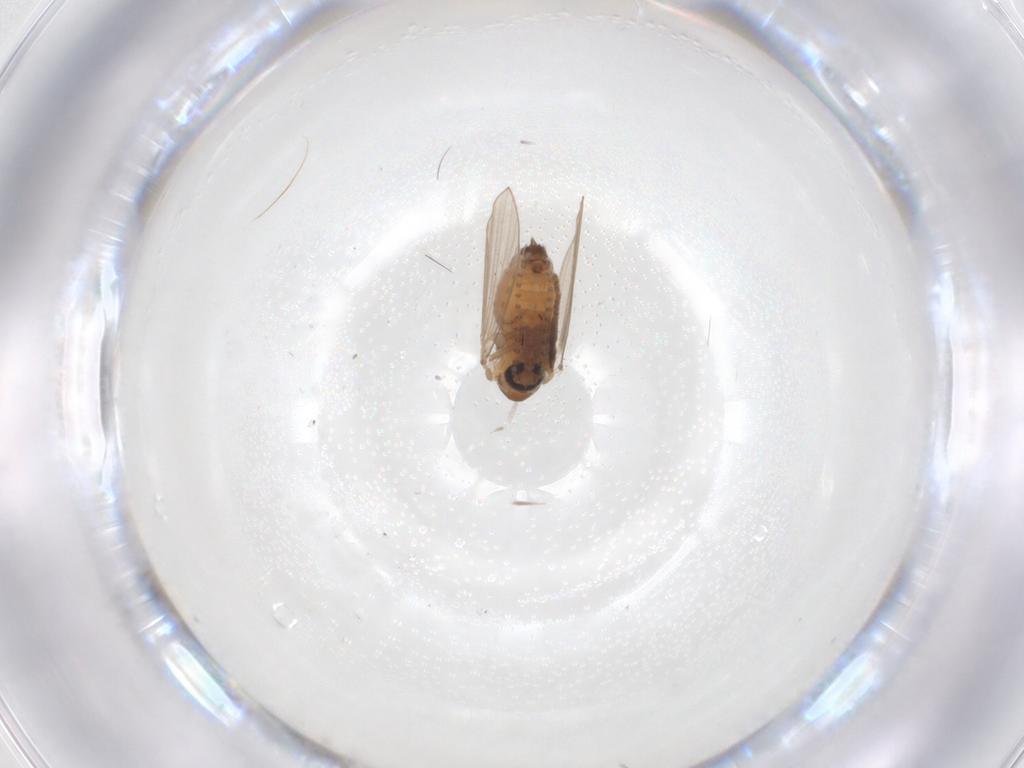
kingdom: Animalia
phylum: Arthropoda
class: Insecta
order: Diptera
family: Psychodidae
